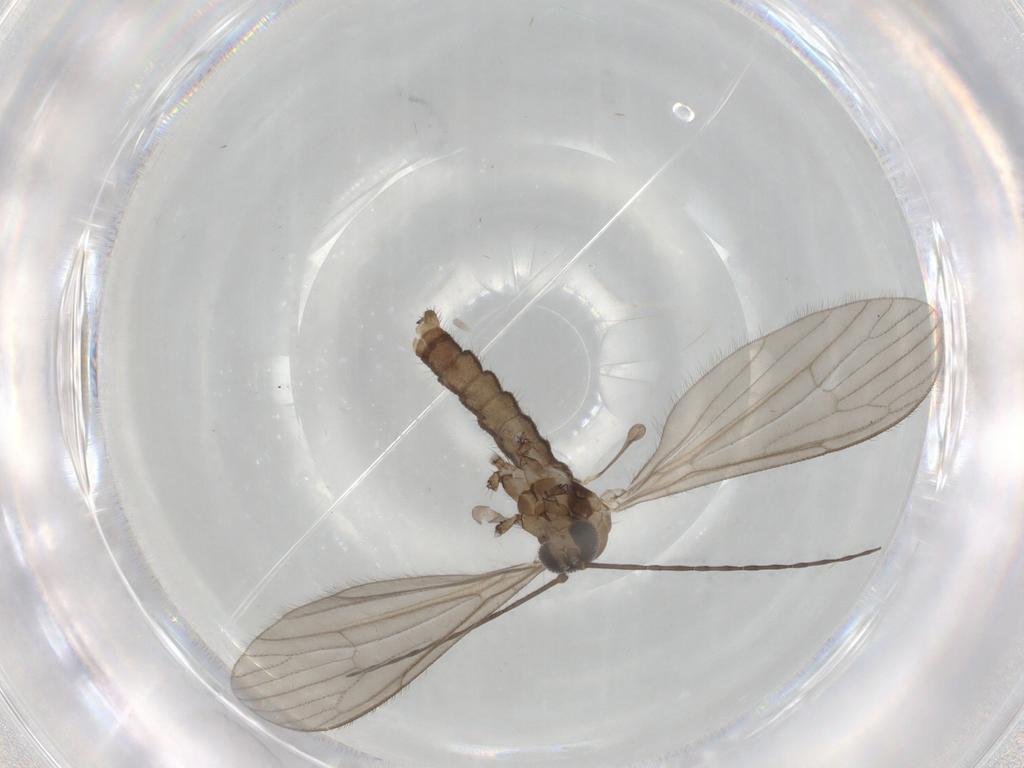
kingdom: Animalia
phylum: Arthropoda
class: Insecta
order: Diptera
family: Limoniidae
